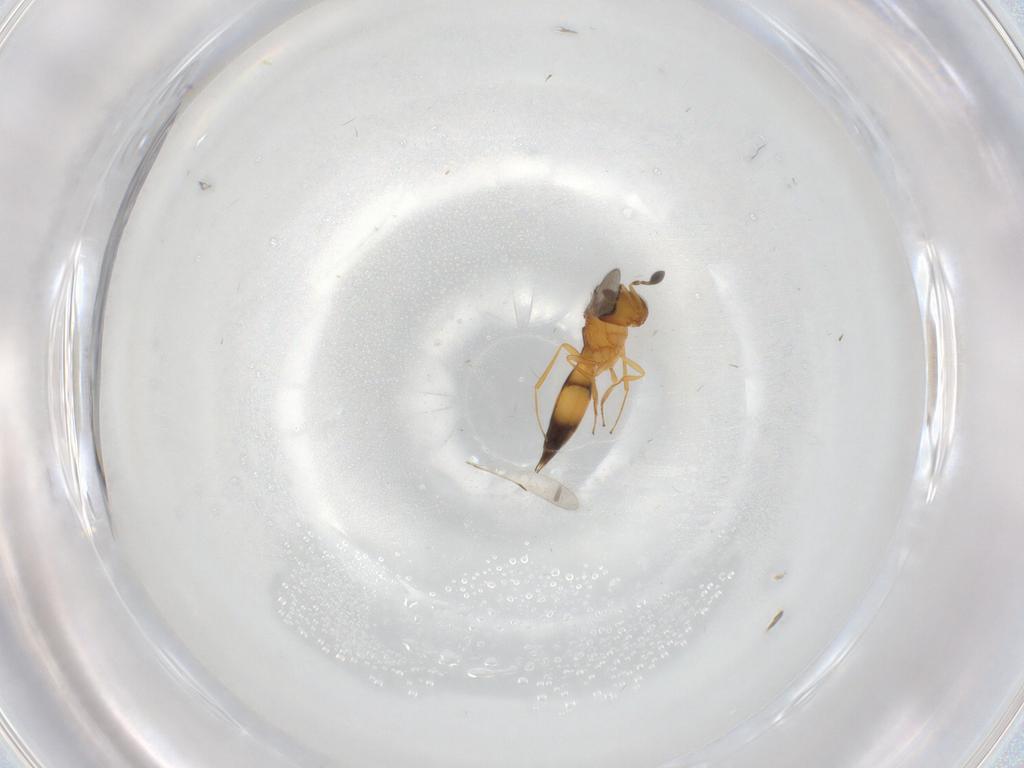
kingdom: Animalia
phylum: Arthropoda
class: Insecta
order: Hymenoptera
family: Scelionidae
